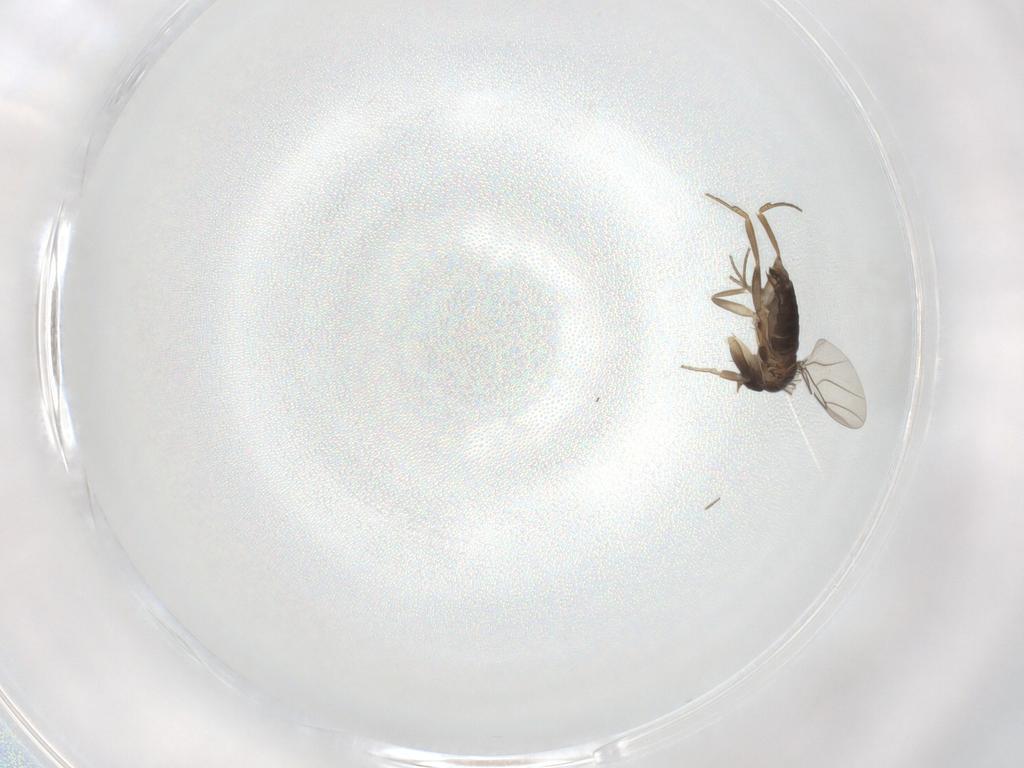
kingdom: Animalia
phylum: Arthropoda
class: Insecta
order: Diptera
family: Phoridae
